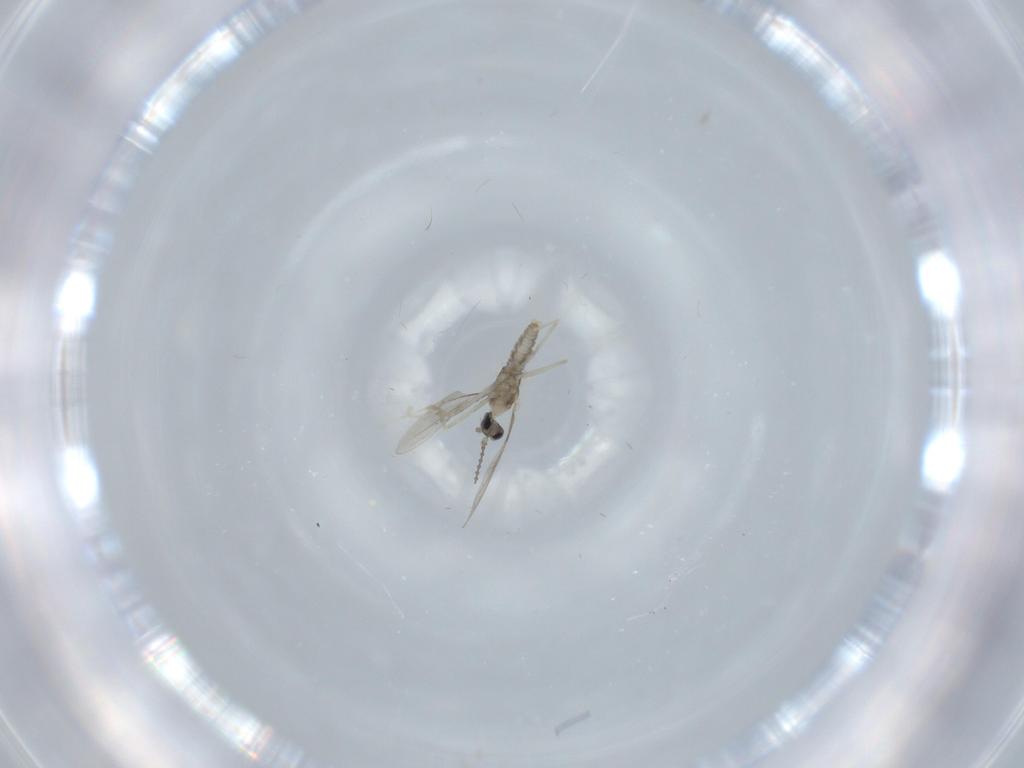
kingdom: Animalia
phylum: Arthropoda
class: Insecta
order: Diptera
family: Cecidomyiidae
